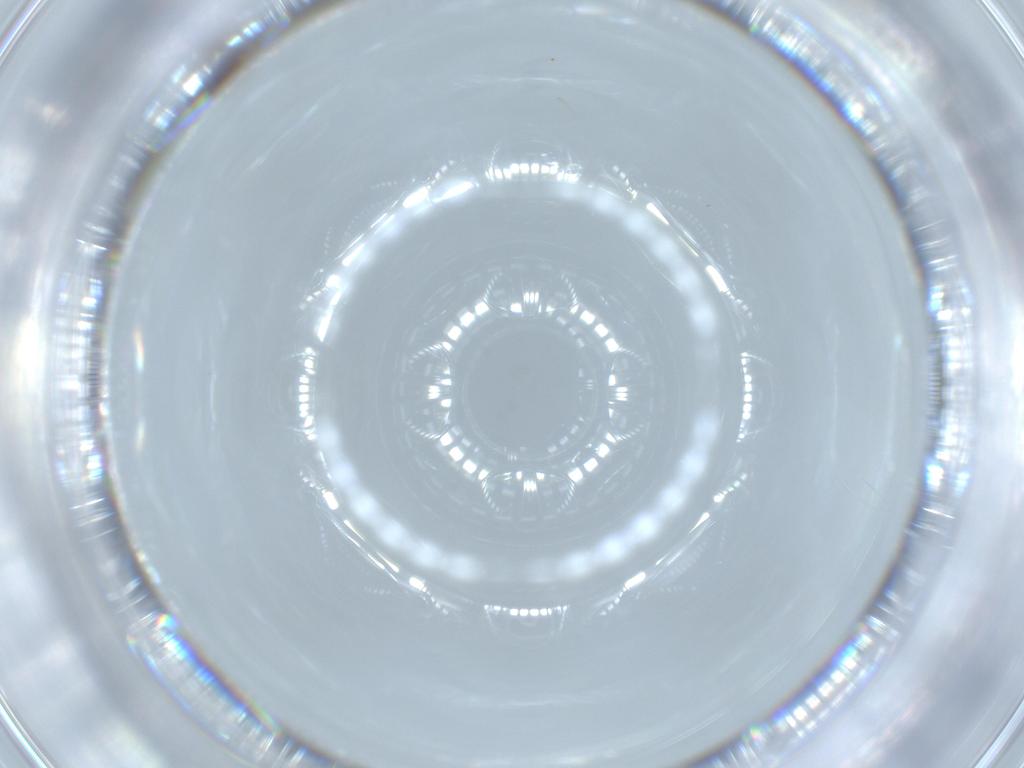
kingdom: Animalia
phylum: Arthropoda
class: Insecta
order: Diptera
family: Cecidomyiidae
